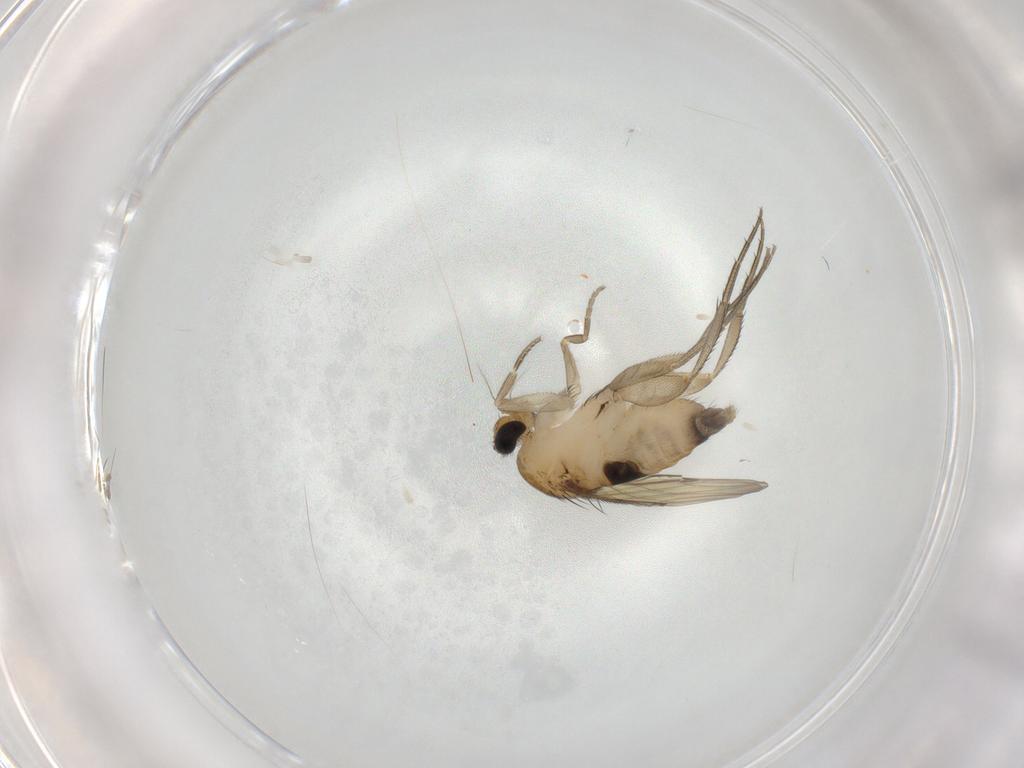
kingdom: Animalia
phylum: Arthropoda
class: Insecta
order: Diptera
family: Phoridae
